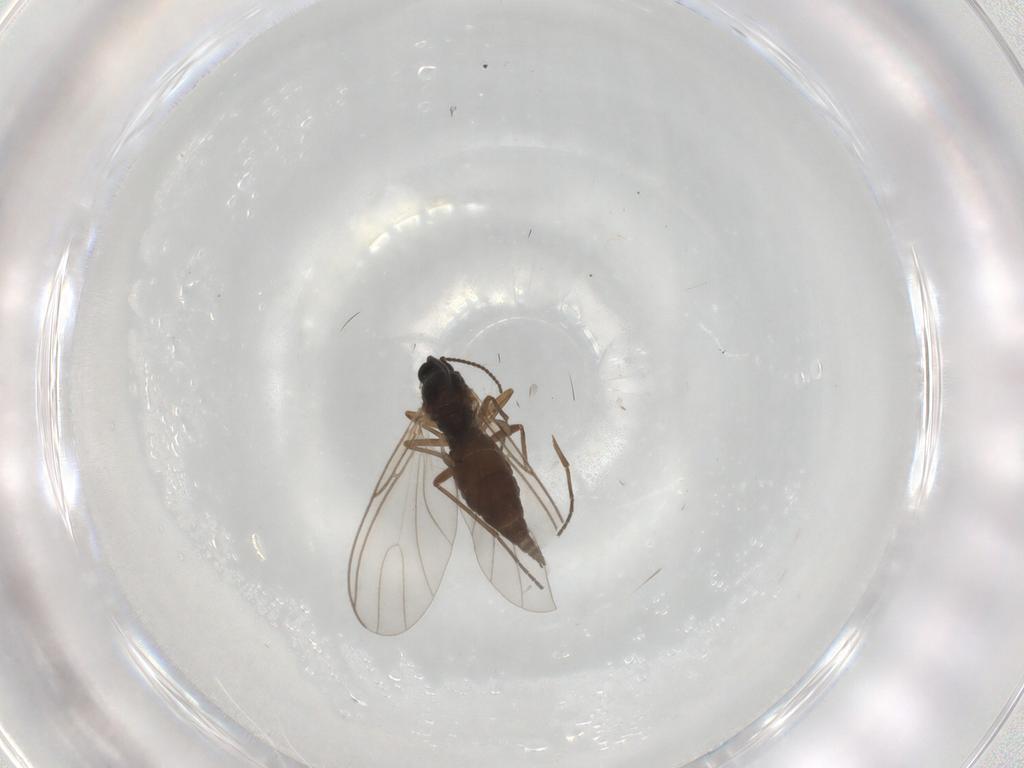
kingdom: Animalia
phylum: Arthropoda
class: Insecta
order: Diptera
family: Sciaridae
